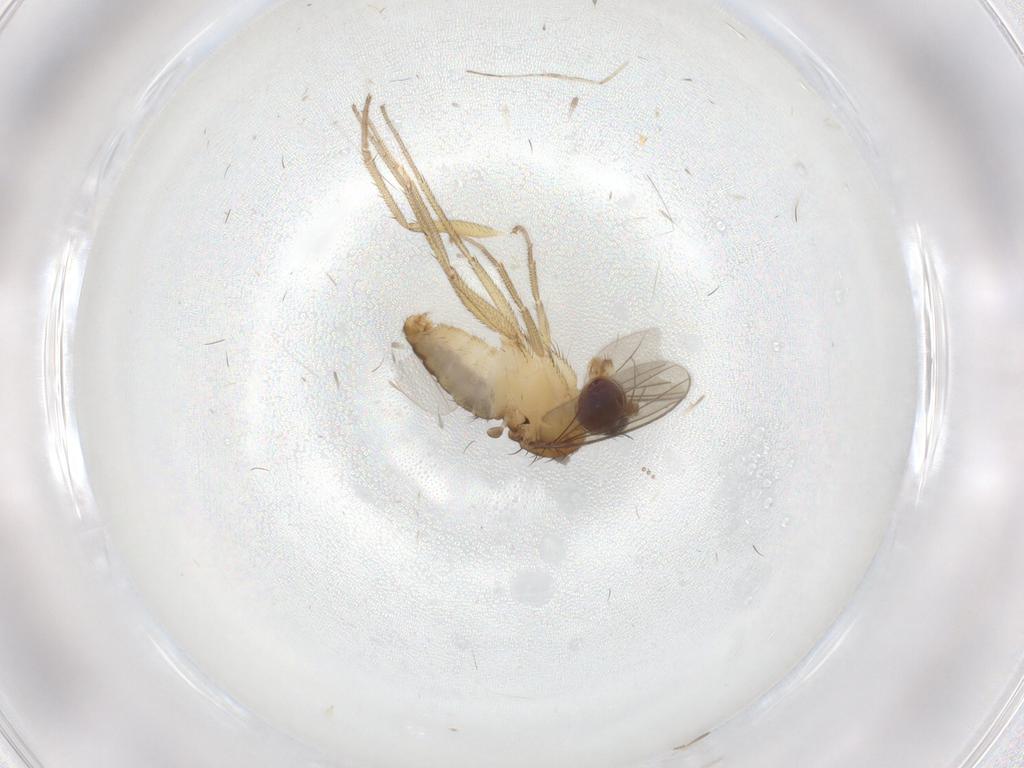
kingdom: Animalia
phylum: Arthropoda
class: Insecta
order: Diptera
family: Dolichopodidae
